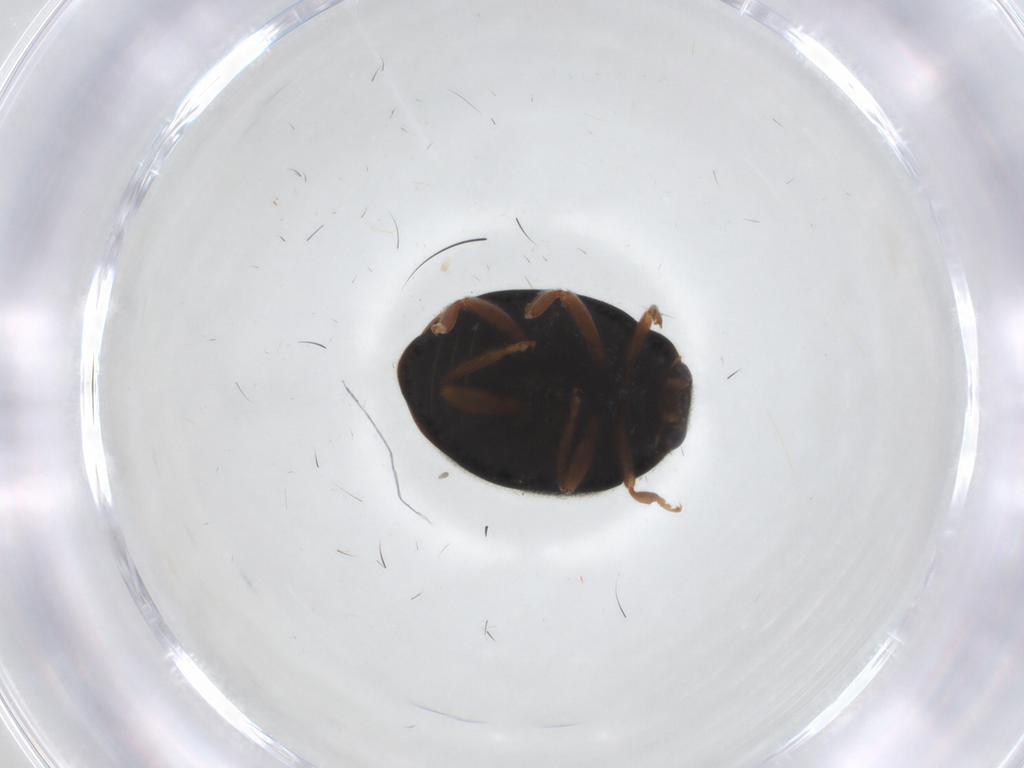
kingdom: Animalia
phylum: Arthropoda
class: Insecta
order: Coleoptera
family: Coccinellidae
